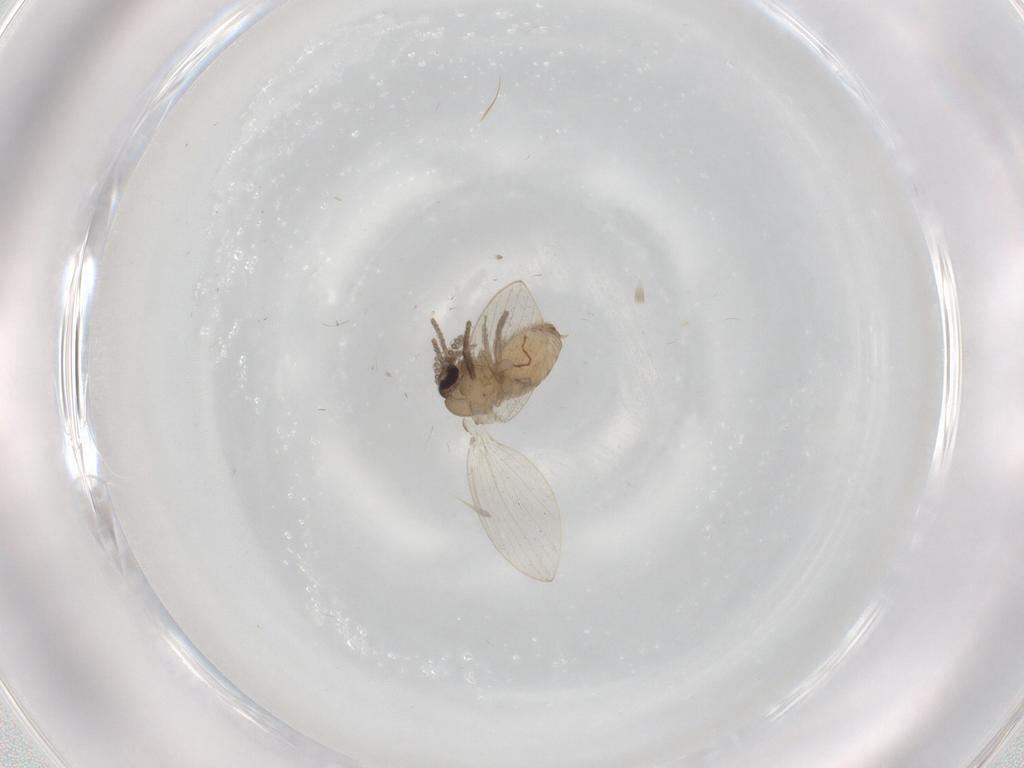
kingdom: Animalia
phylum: Arthropoda
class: Insecta
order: Diptera
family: Psychodidae
